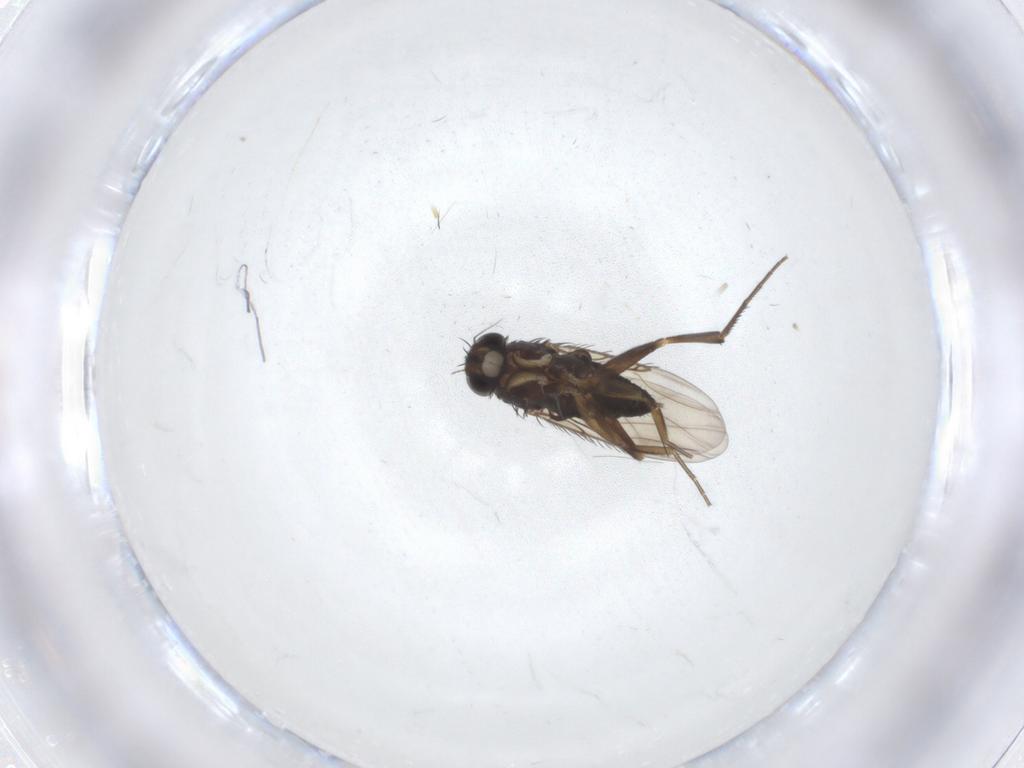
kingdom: Animalia
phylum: Arthropoda
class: Insecta
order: Diptera
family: Phoridae
